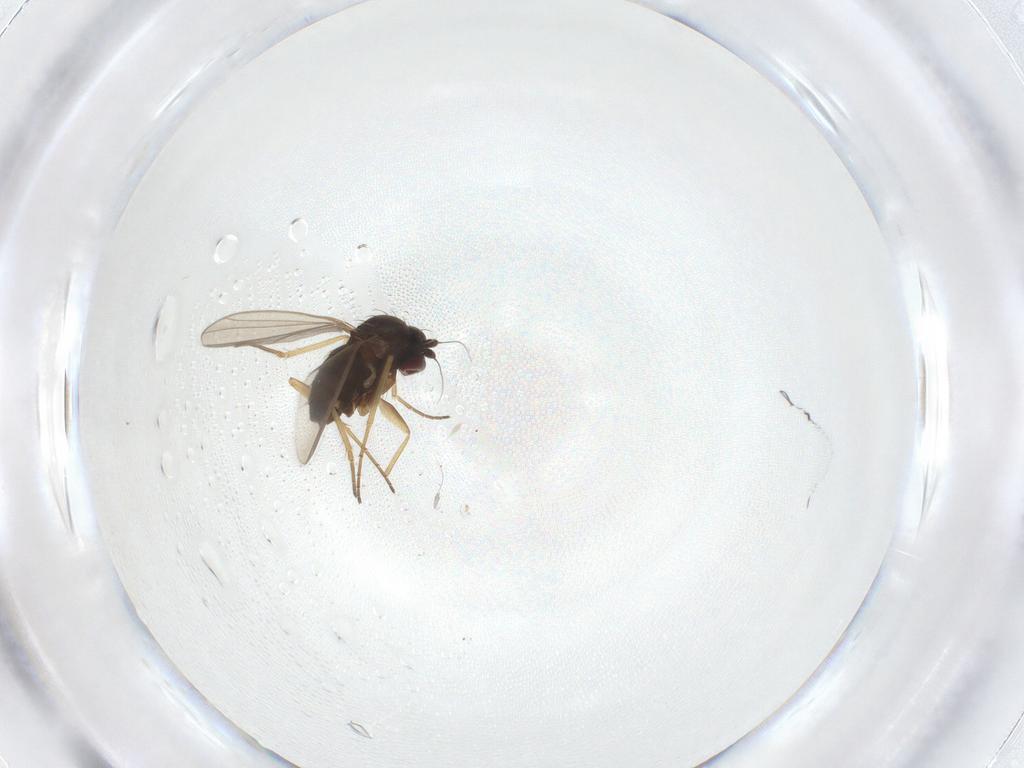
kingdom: Animalia
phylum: Arthropoda
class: Insecta
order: Diptera
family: Dolichopodidae
